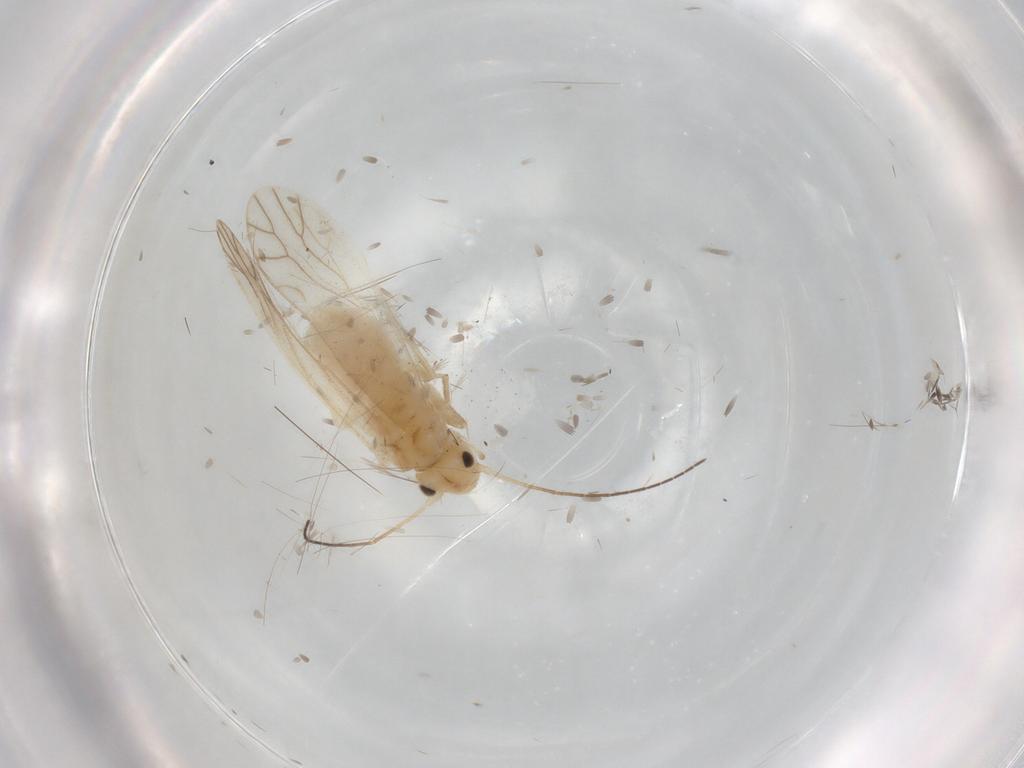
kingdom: Animalia
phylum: Arthropoda
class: Insecta
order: Psocodea
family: Caeciliusidae
